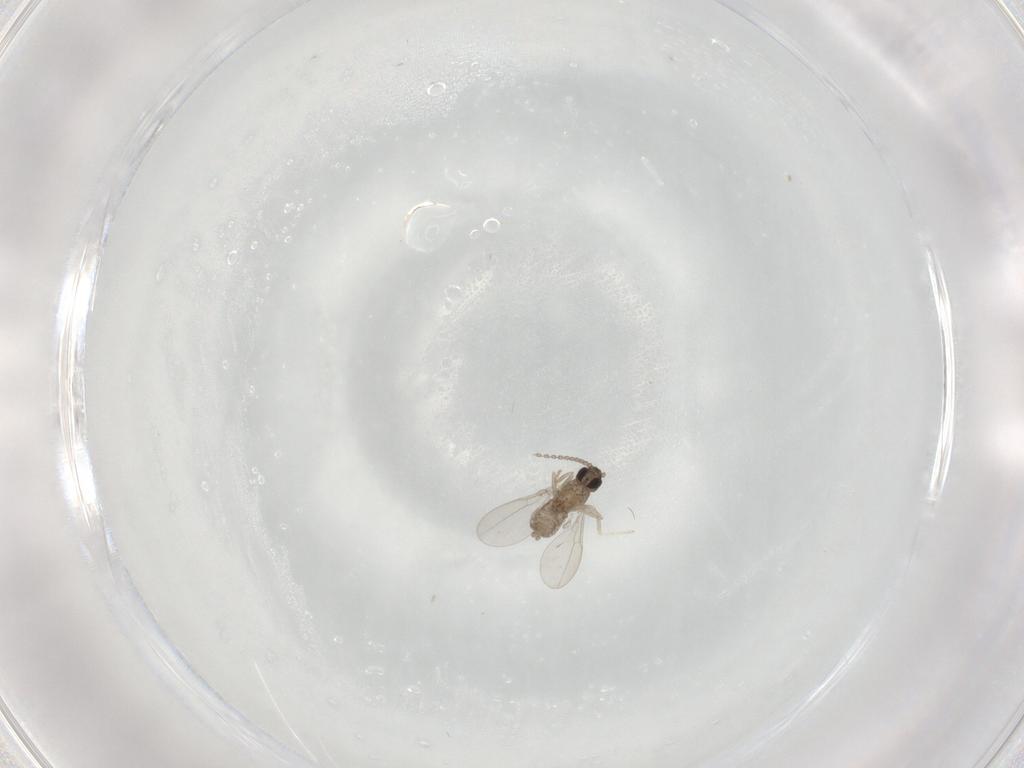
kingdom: Animalia
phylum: Arthropoda
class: Insecta
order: Diptera
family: Cecidomyiidae
